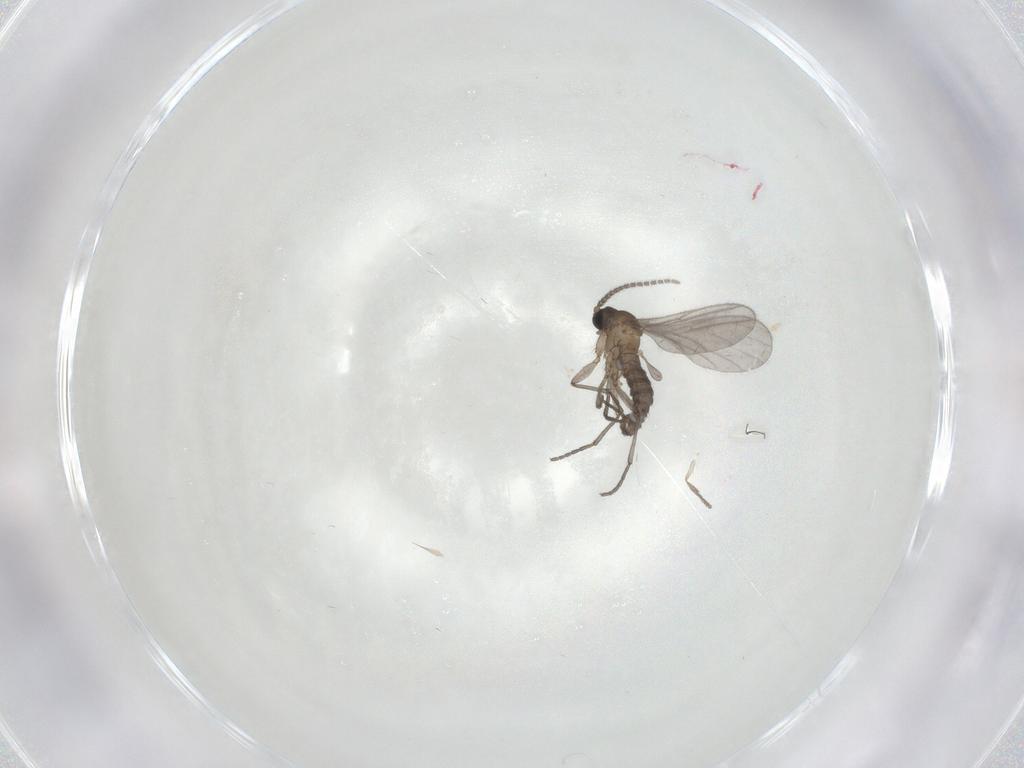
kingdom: Animalia
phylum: Arthropoda
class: Insecta
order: Diptera
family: Sciaridae
